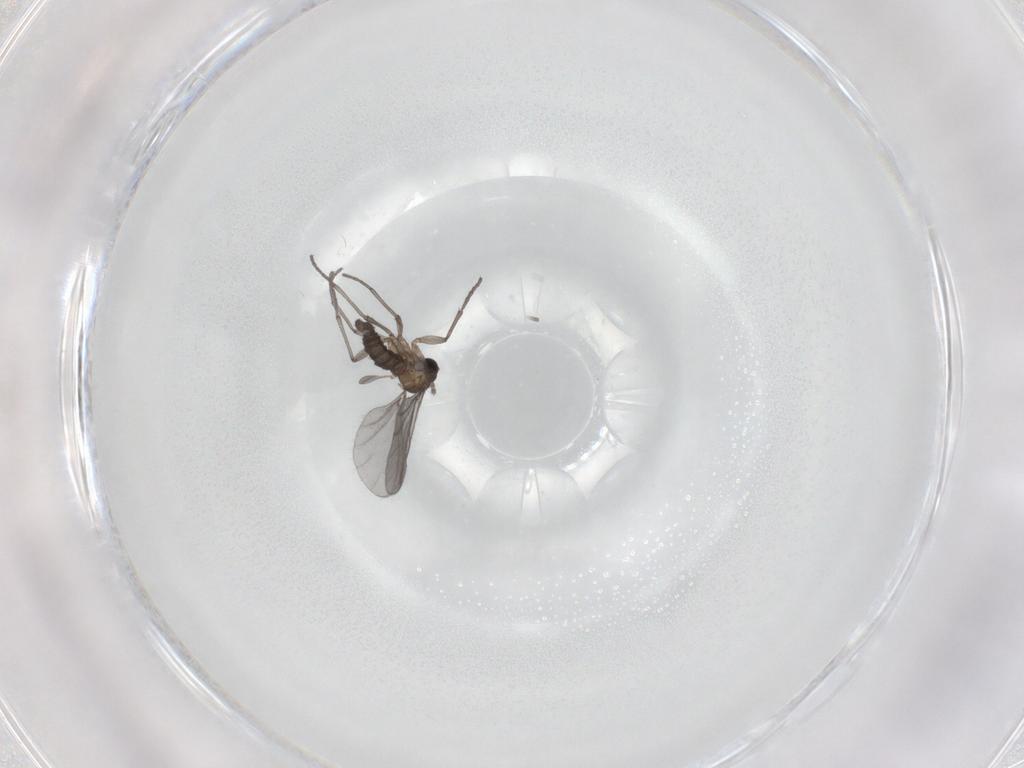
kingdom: Animalia
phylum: Arthropoda
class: Insecta
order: Diptera
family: Sciaridae
